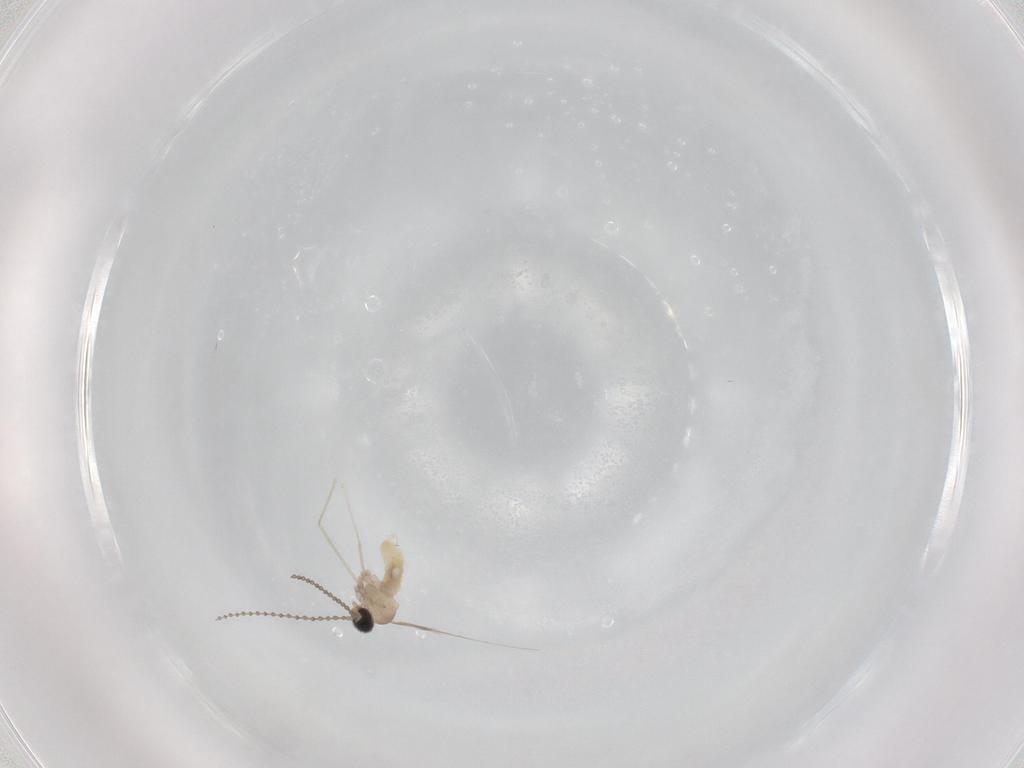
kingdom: Animalia
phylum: Arthropoda
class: Insecta
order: Diptera
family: Cecidomyiidae
